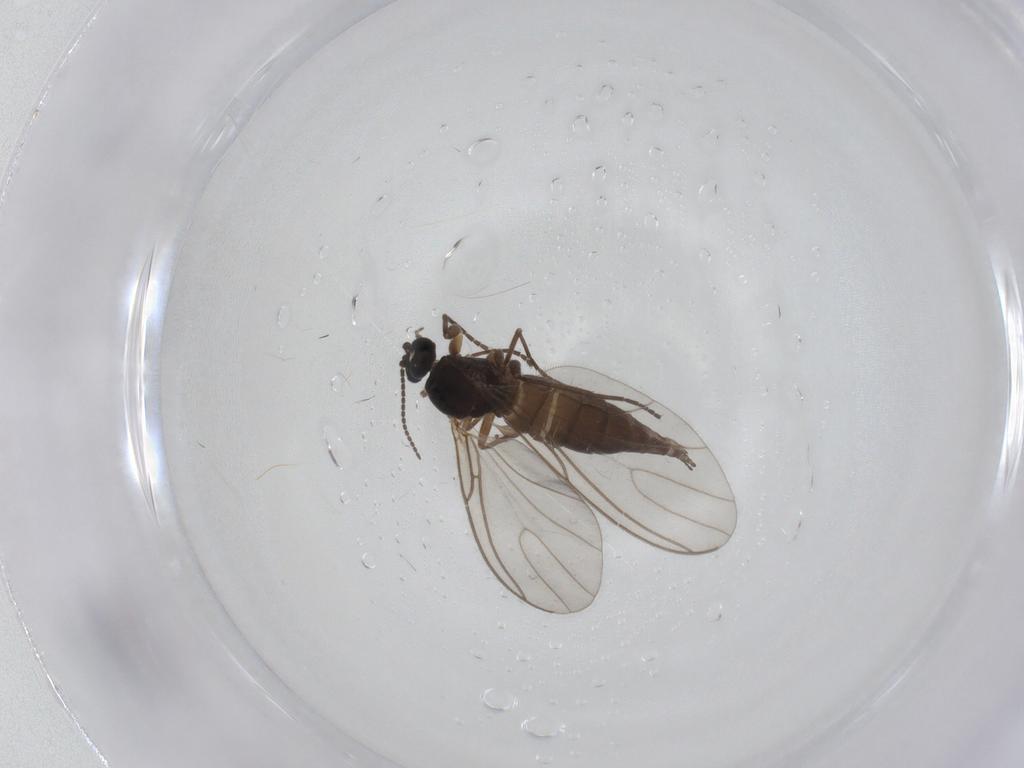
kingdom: Animalia
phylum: Arthropoda
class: Insecta
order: Diptera
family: Psychodidae
